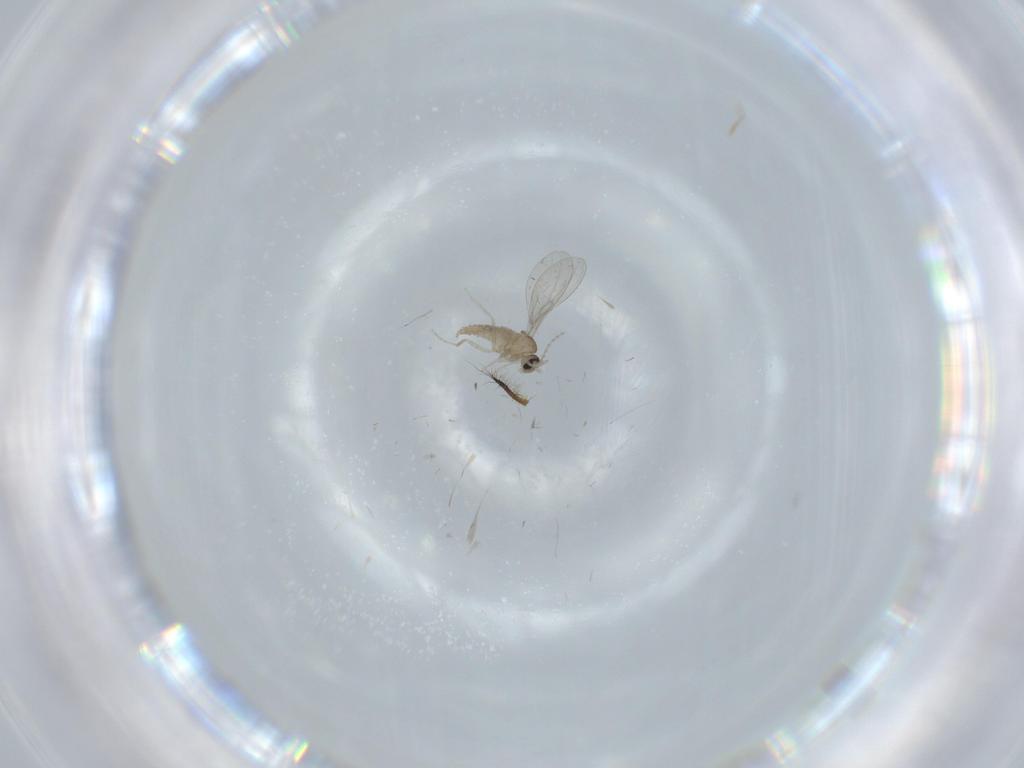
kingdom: Animalia
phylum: Arthropoda
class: Insecta
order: Diptera
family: Cecidomyiidae
